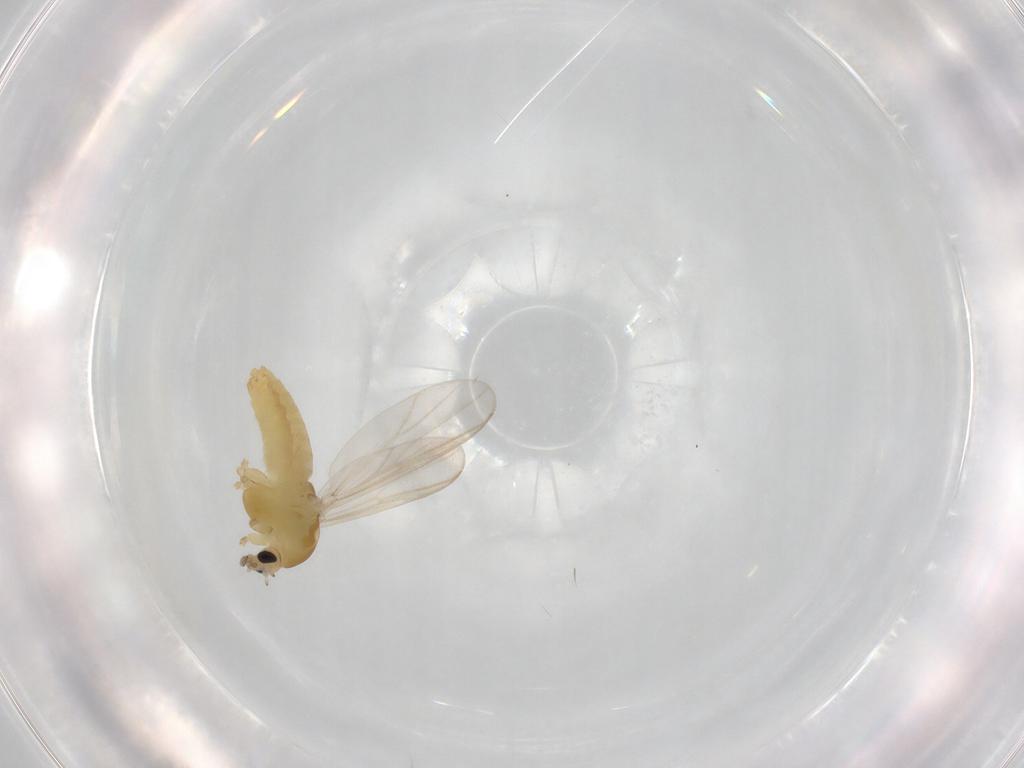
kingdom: Animalia
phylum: Arthropoda
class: Insecta
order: Diptera
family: Chironomidae
